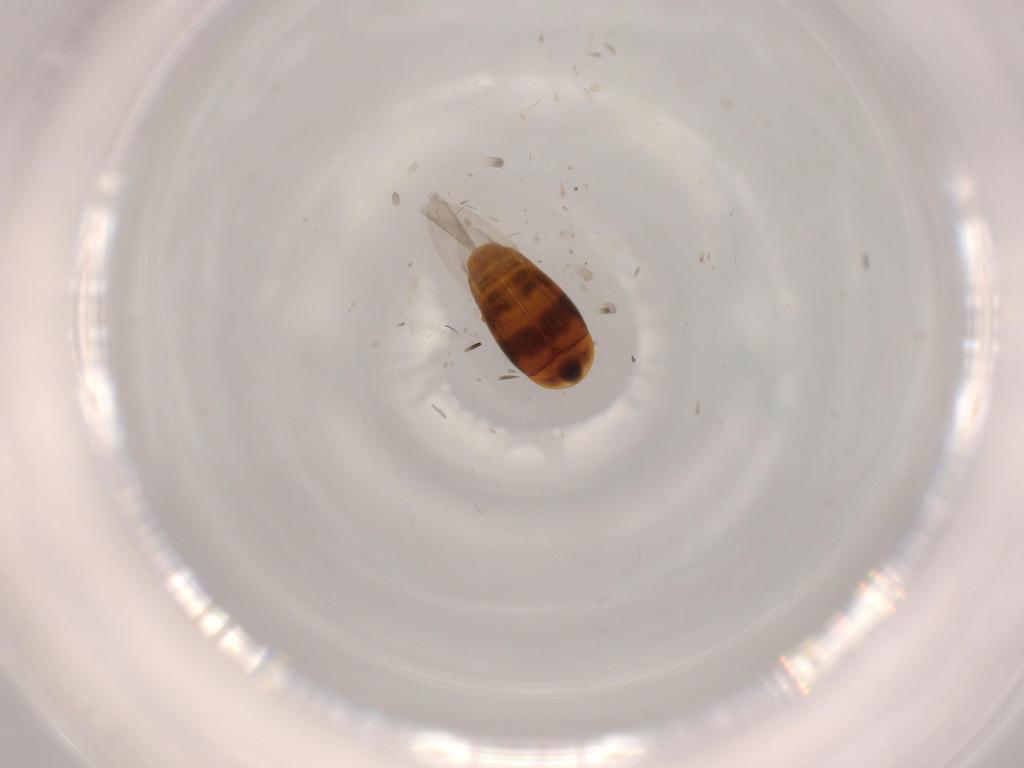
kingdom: Animalia
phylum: Arthropoda
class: Insecta
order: Coleoptera
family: Corylophidae
